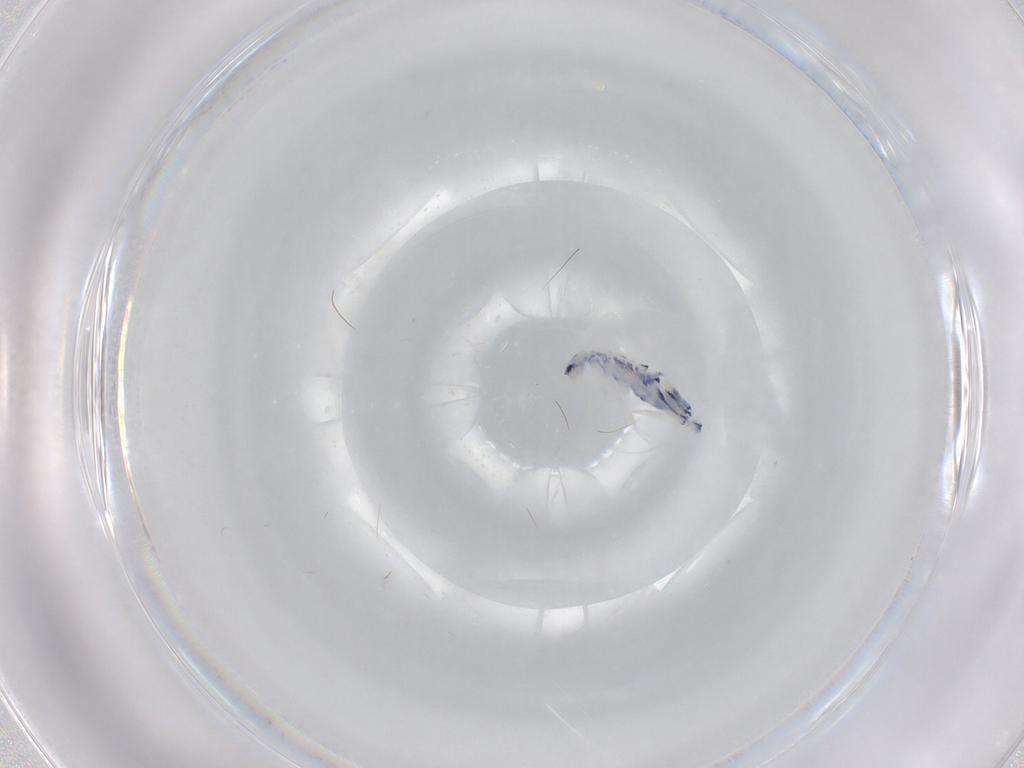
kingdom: Animalia
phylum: Arthropoda
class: Collembola
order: Entomobryomorpha
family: Entomobryidae
